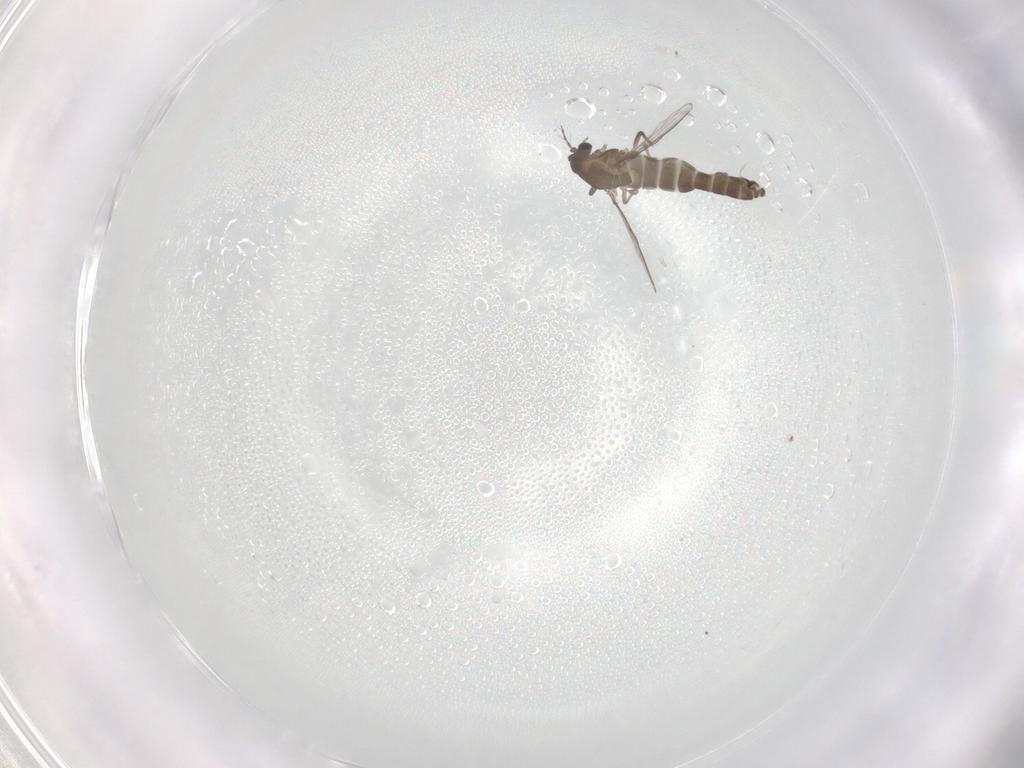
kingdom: Animalia
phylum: Arthropoda
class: Insecta
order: Diptera
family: Chironomidae
